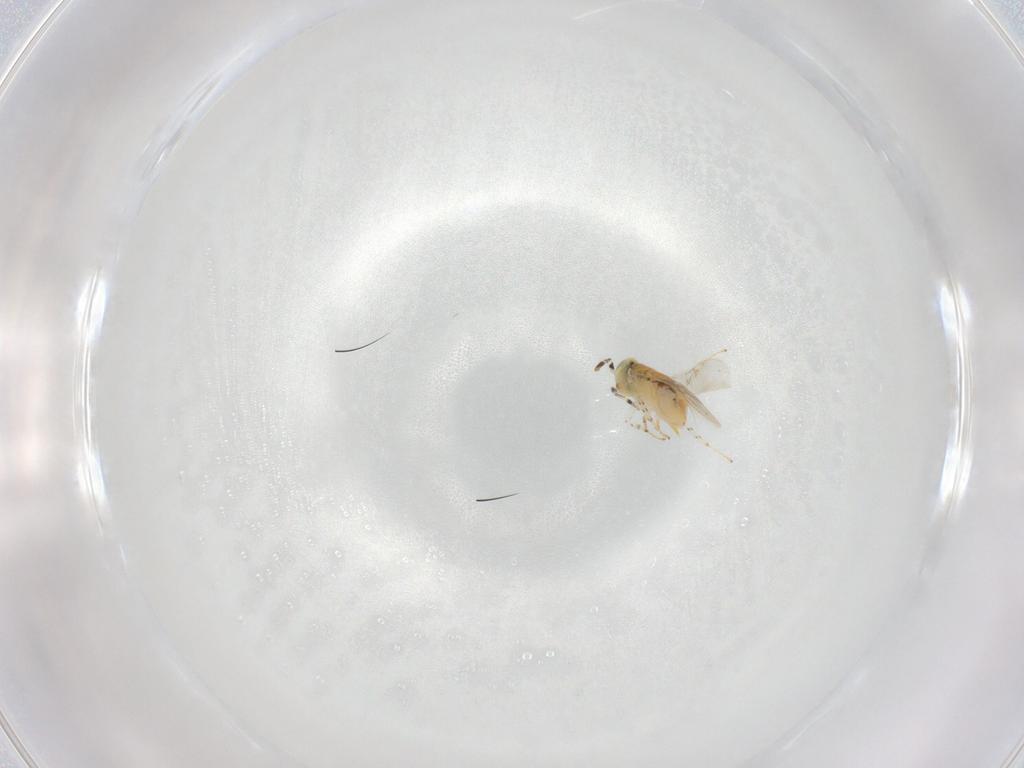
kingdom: Animalia
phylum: Arthropoda
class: Insecta
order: Hymenoptera
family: Encyrtidae
